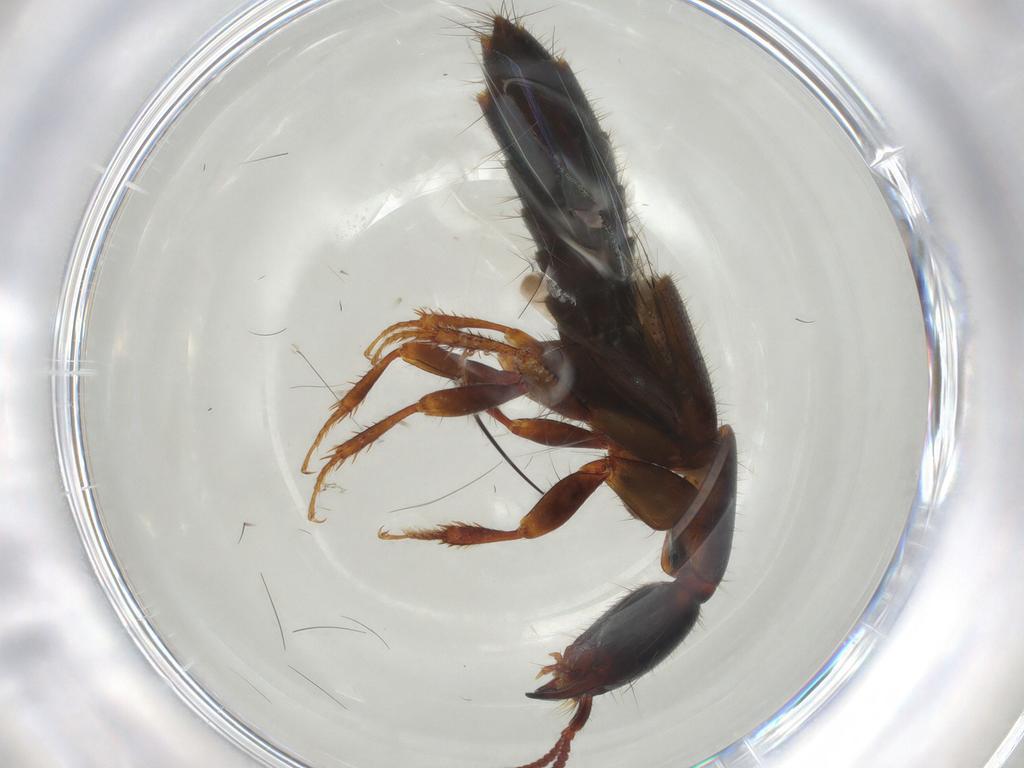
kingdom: Animalia
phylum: Arthropoda
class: Insecta
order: Coleoptera
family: Staphylinidae
